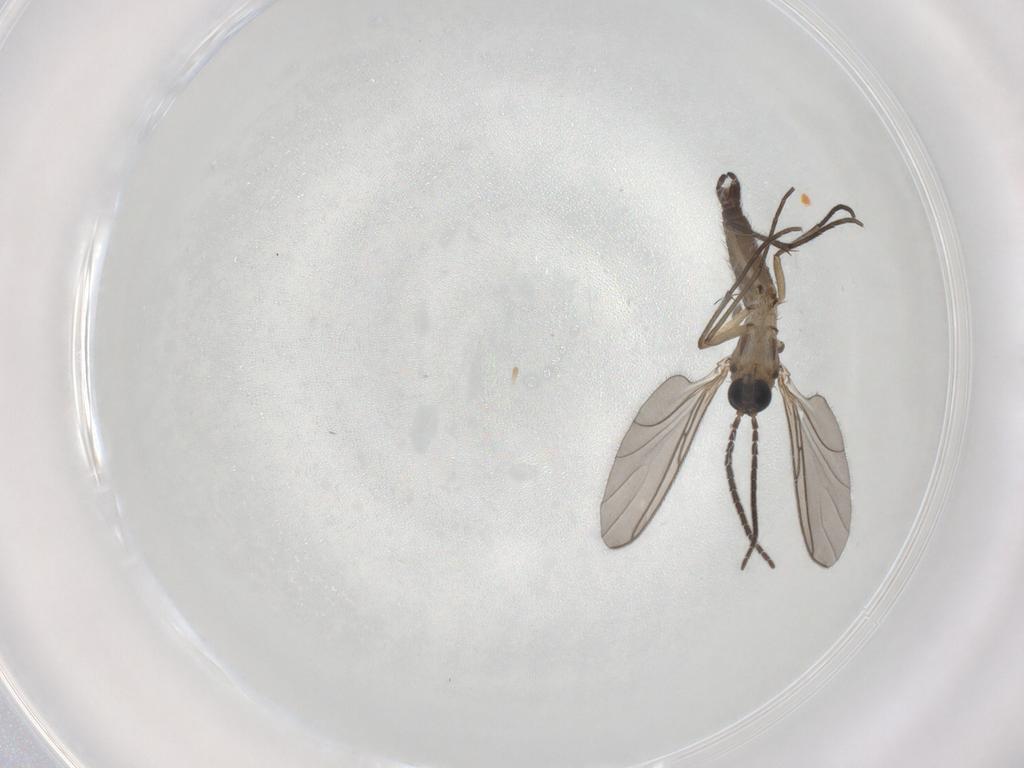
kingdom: Animalia
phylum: Arthropoda
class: Insecta
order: Diptera
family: Sciaridae
